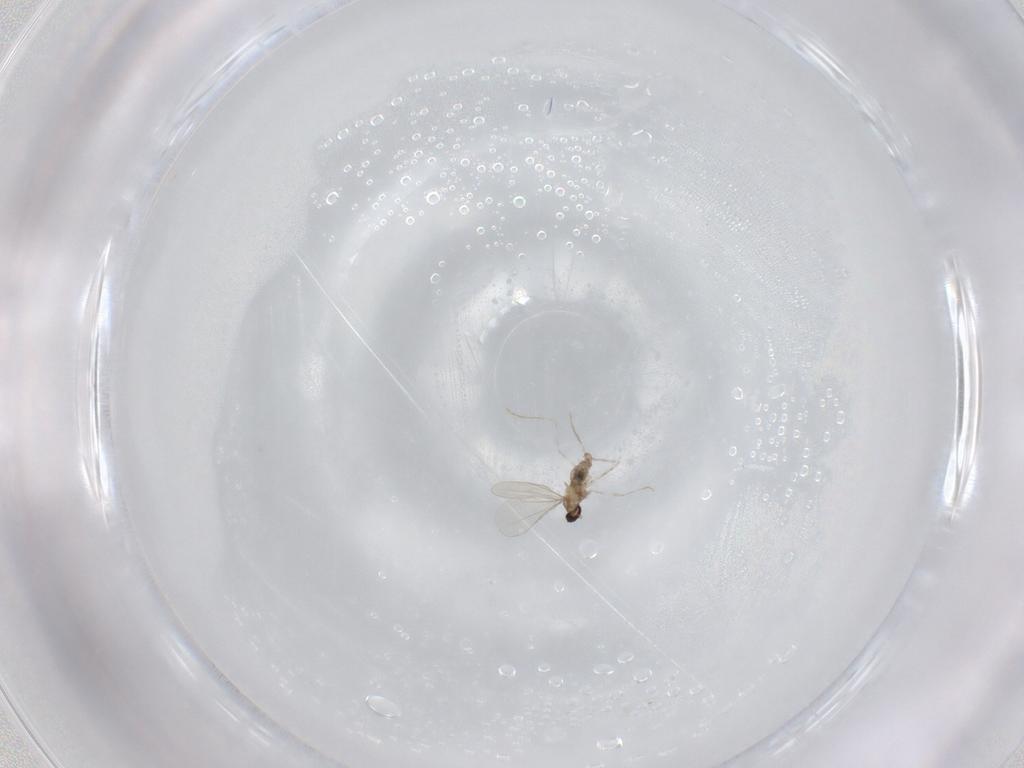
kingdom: Animalia
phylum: Arthropoda
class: Insecta
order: Diptera
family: Cecidomyiidae
